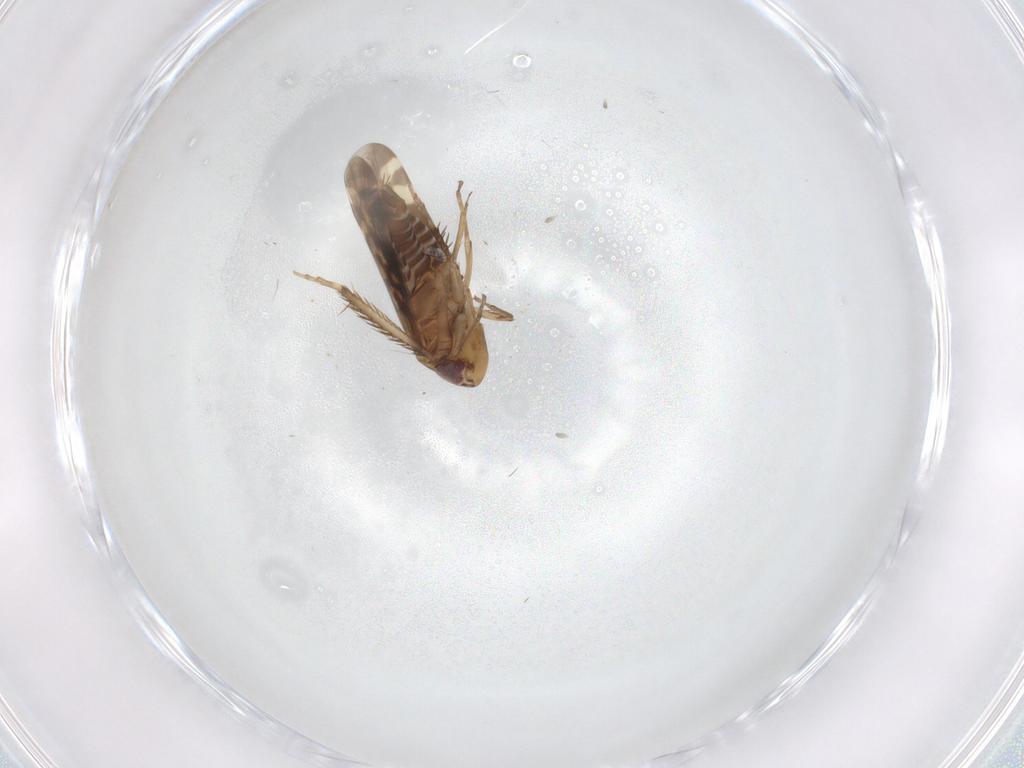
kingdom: Animalia
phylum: Arthropoda
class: Insecta
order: Hemiptera
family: Cicadellidae
